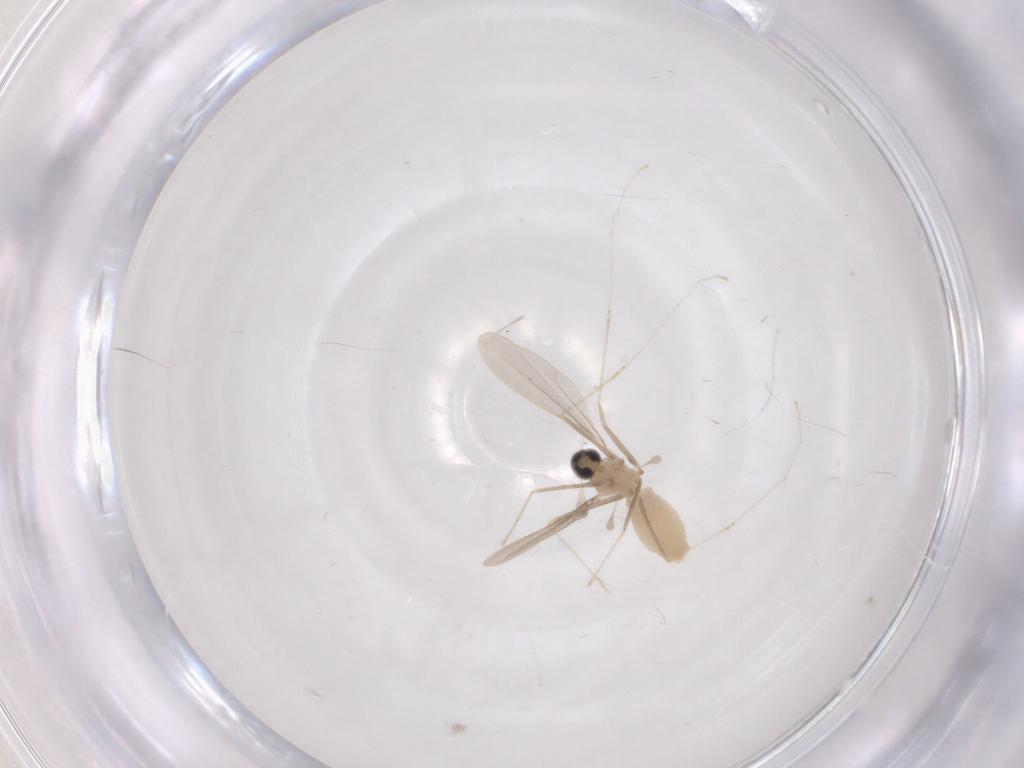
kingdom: Animalia
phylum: Arthropoda
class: Insecta
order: Diptera
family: Cecidomyiidae
